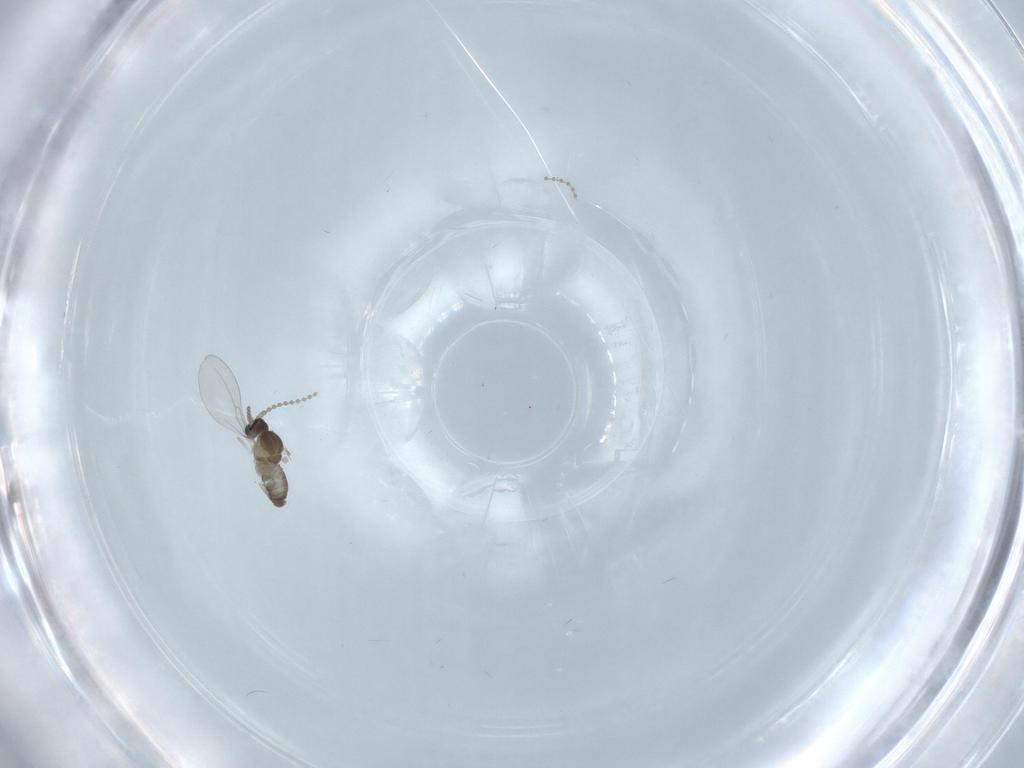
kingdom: Animalia
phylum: Arthropoda
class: Insecta
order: Diptera
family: Cecidomyiidae
